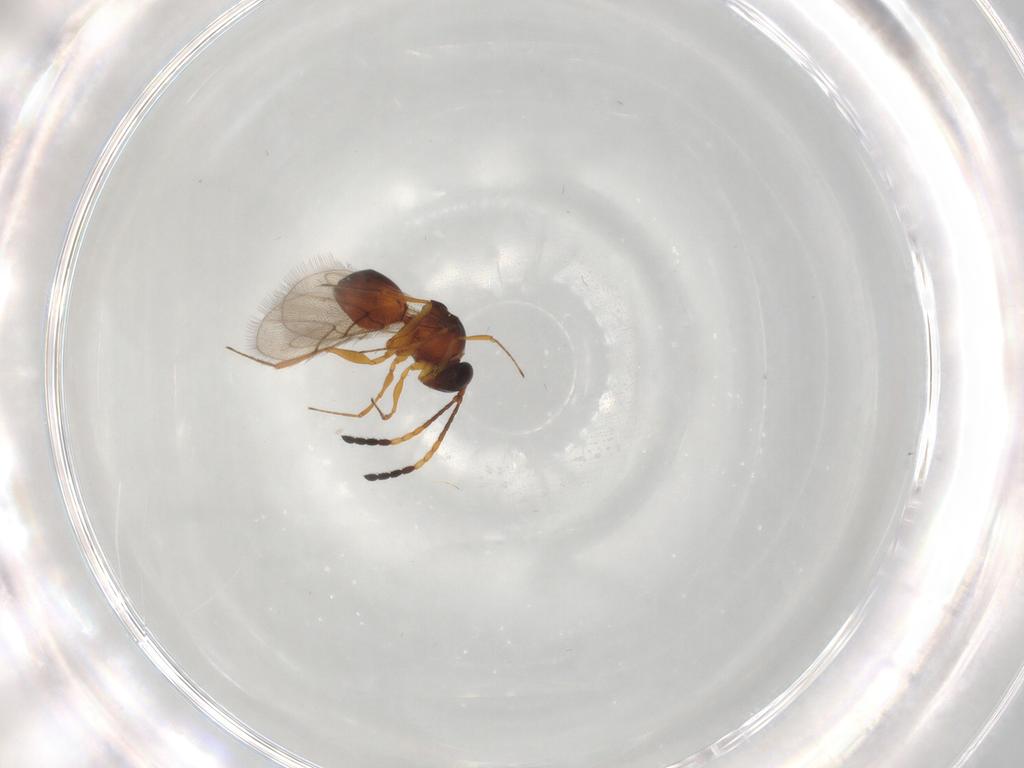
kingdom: Animalia
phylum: Arthropoda
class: Insecta
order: Hymenoptera
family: Figitidae
